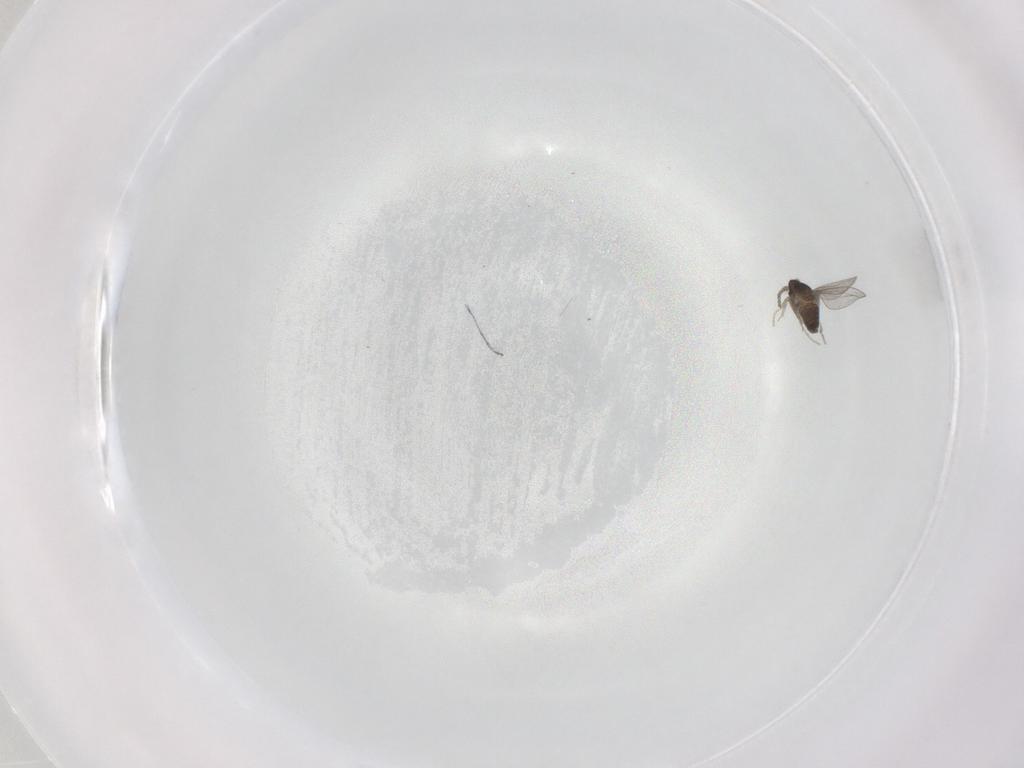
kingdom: Animalia
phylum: Arthropoda
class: Insecta
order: Diptera
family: Cecidomyiidae
